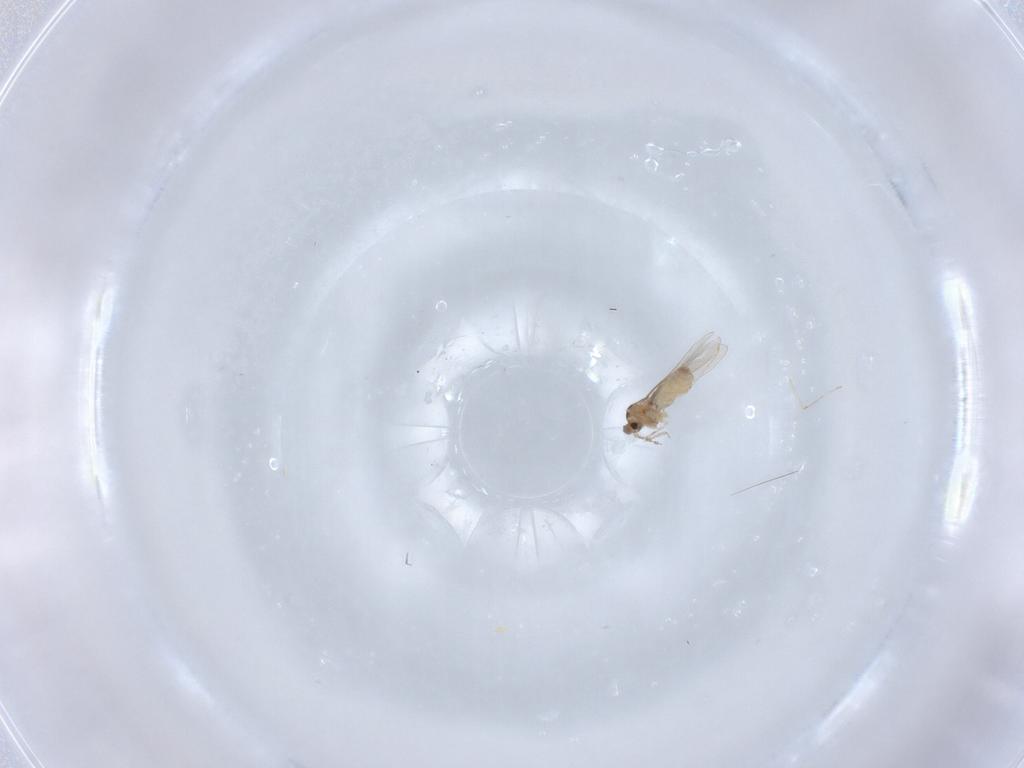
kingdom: Animalia
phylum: Arthropoda
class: Insecta
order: Diptera
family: Cecidomyiidae
